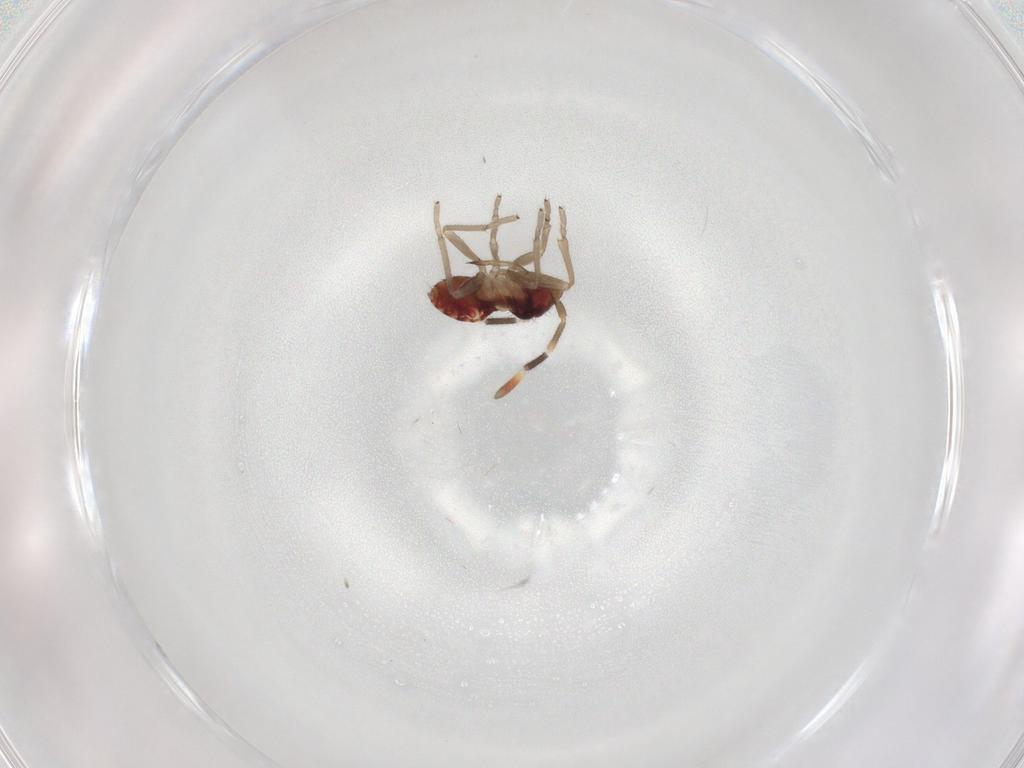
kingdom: Animalia
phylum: Arthropoda
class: Insecta
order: Hemiptera
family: Rhyparochromidae
